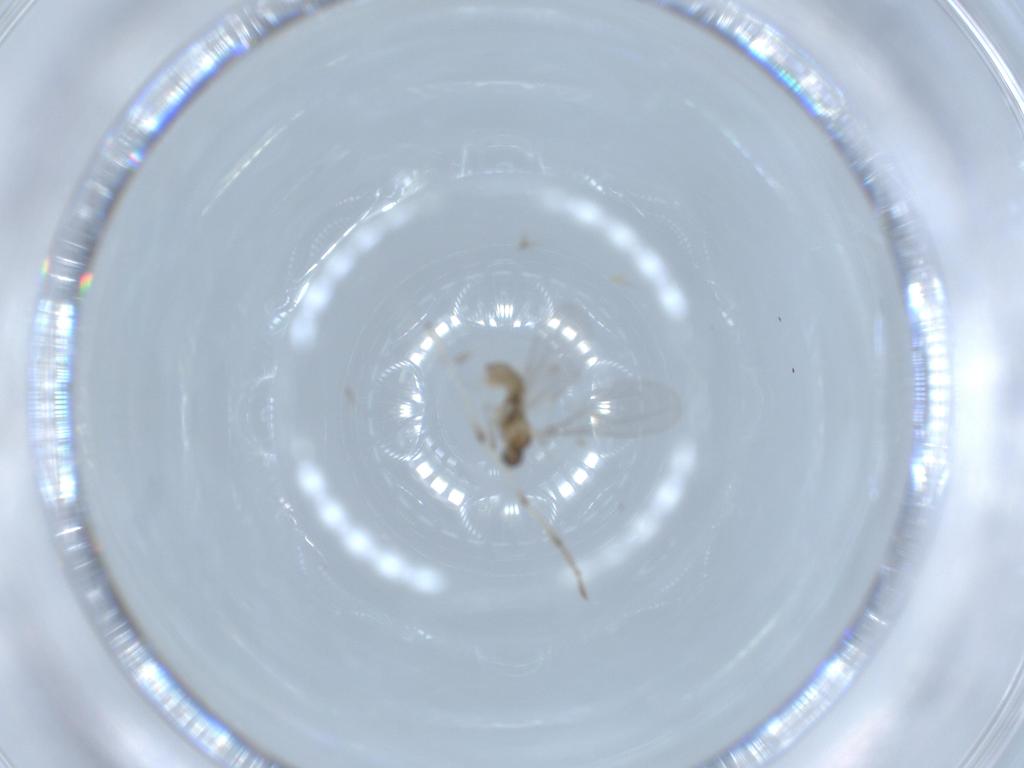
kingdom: Animalia
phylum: Arthropoda
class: Insecta
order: Diptera
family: Cecidomyiidae
